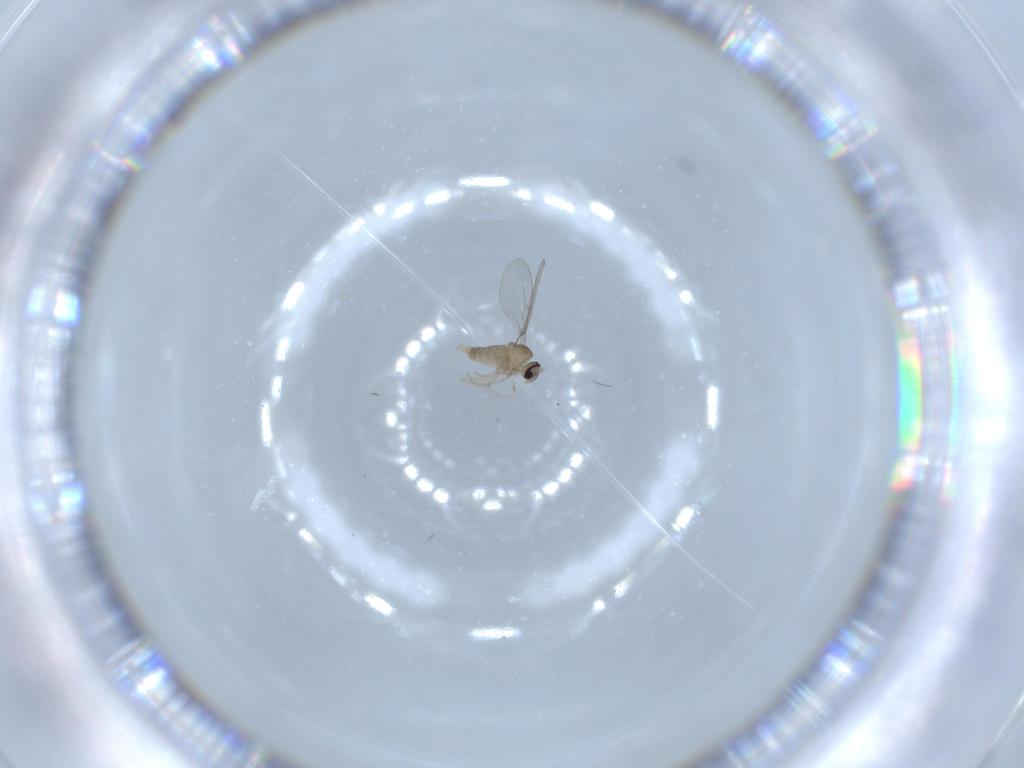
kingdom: Animalia
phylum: Arthropoda
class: Insecta
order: Diptera
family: Pipunculidae
